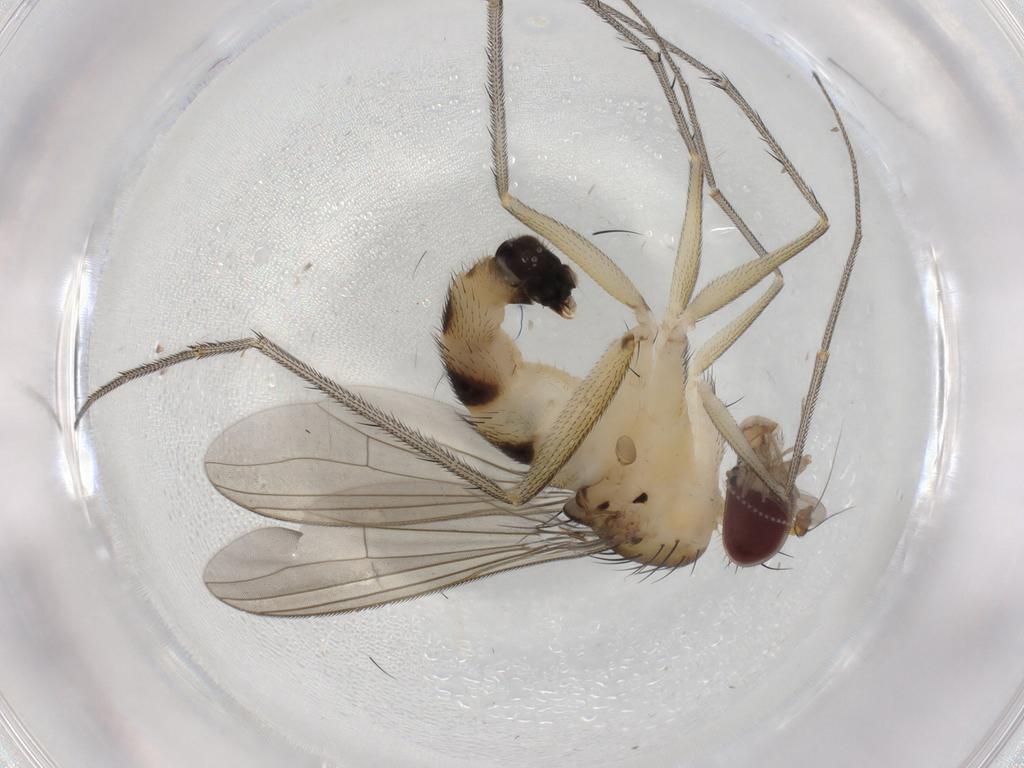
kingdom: Animalia
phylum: Arthropoda
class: Insecta
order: Diptera
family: Cecidomyiidae
